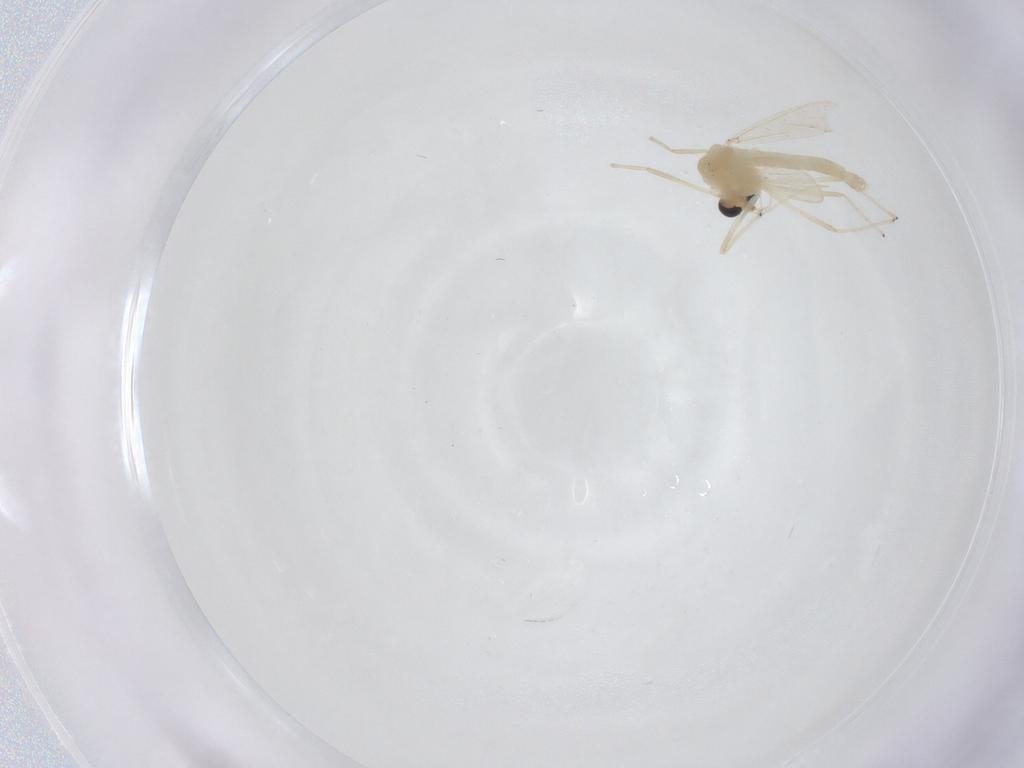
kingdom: Animalia
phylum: Arthropoda
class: Insecta
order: Diptera
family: Chironomidae
